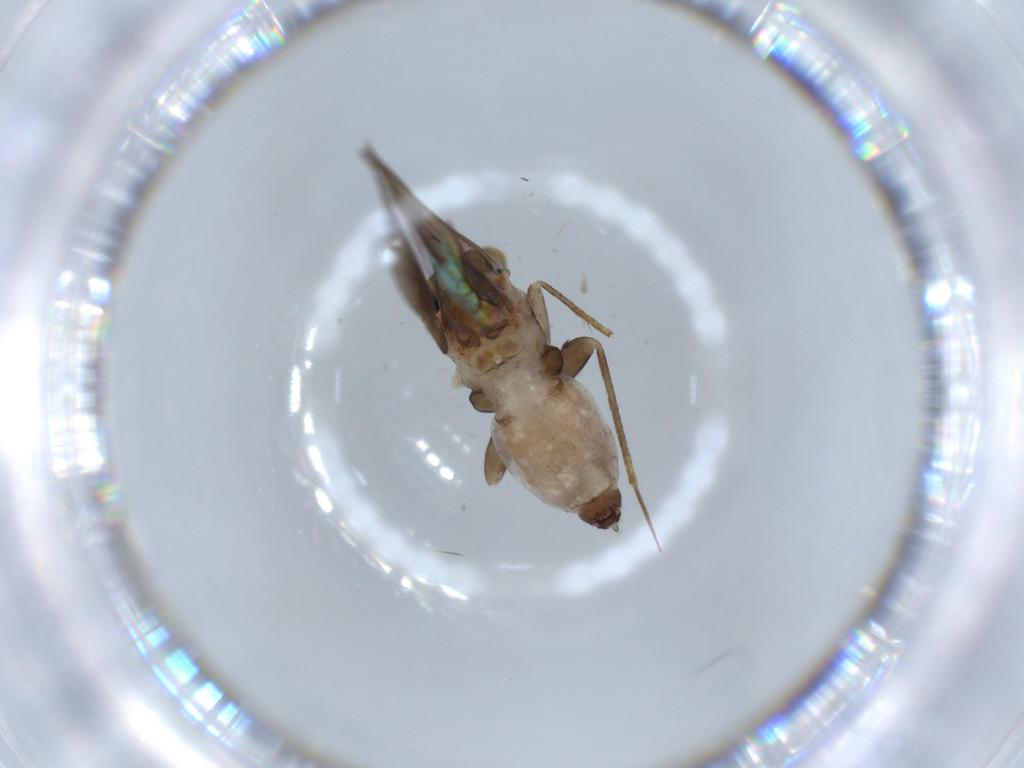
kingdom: Animalia
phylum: Arthropoda
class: Insecta
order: Psocodea
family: Lepidopsocidae
